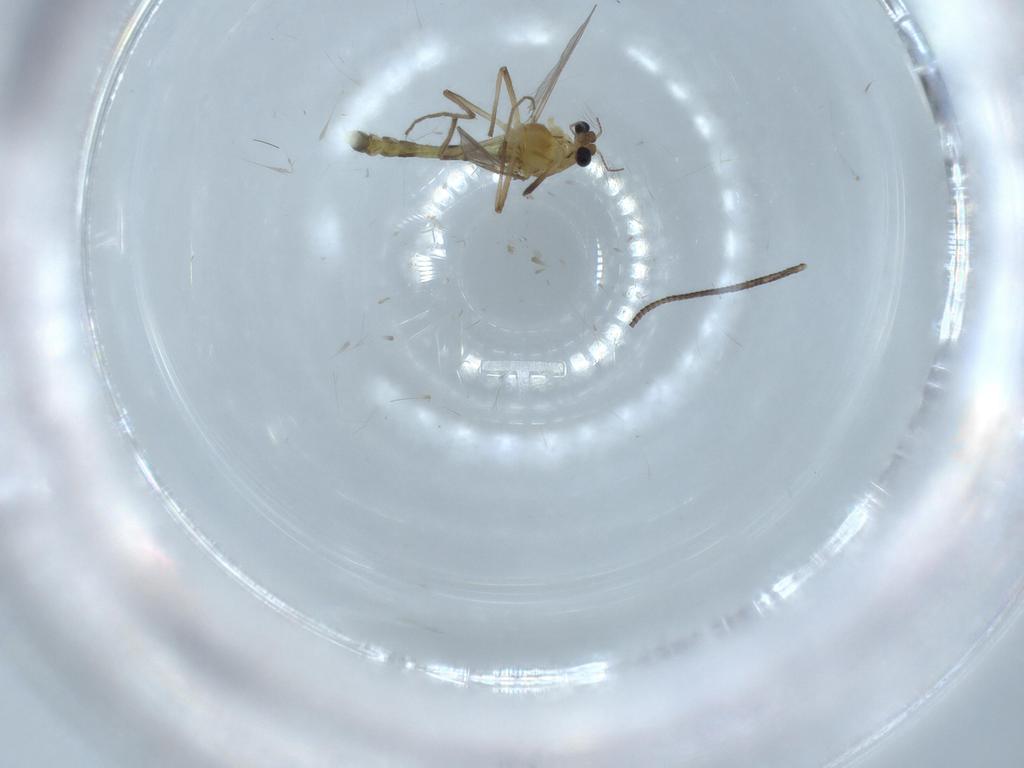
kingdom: Animalia
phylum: Arthropoda
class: Insecta
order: Diptera
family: Chironomidae
